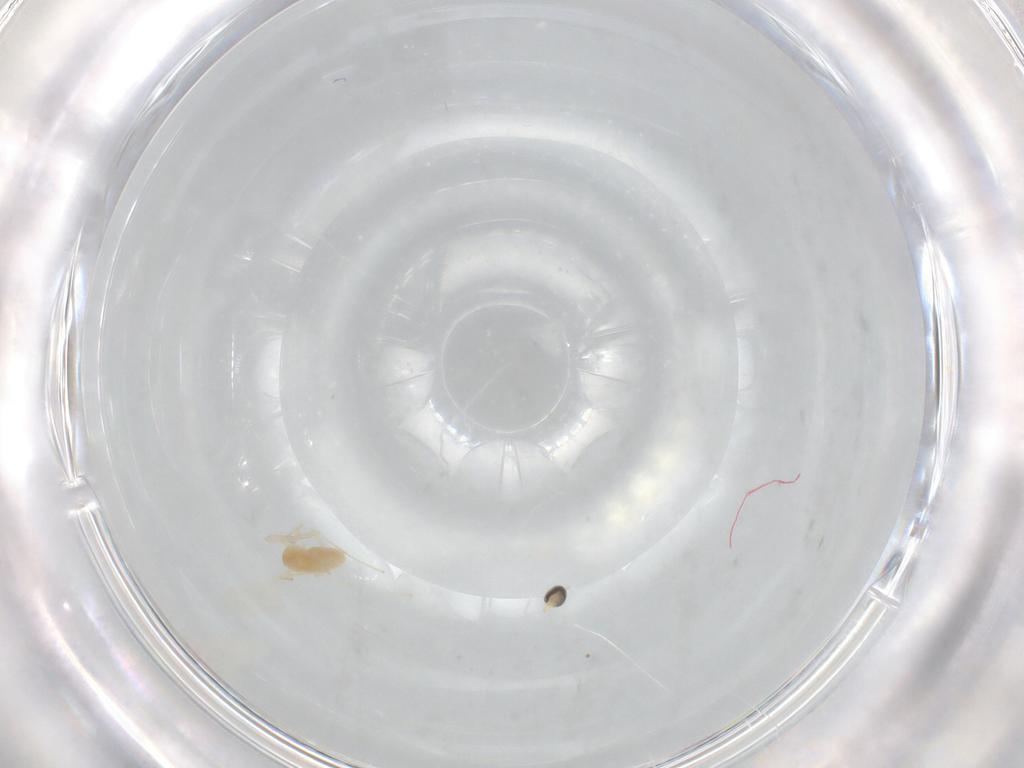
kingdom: Animalia
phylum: Arthropoda
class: Insecta
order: Diptera
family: Cecidomyiidae
